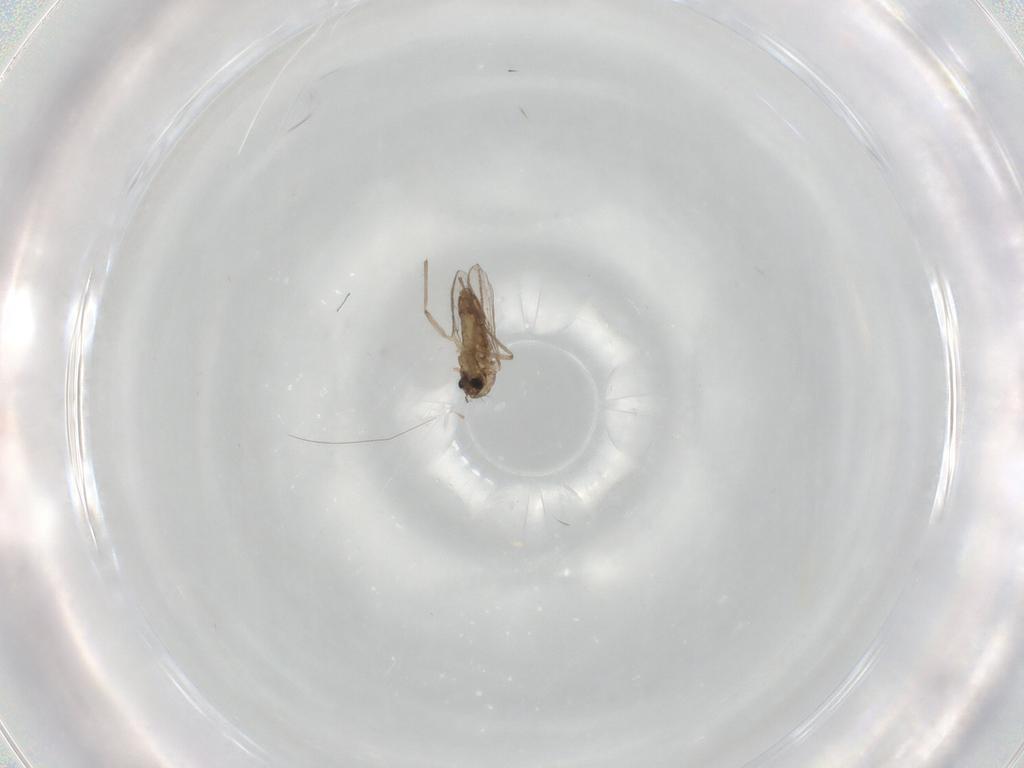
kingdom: Animalia
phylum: Arthropoda
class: Insecta
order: Diptera
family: Chironomidae
